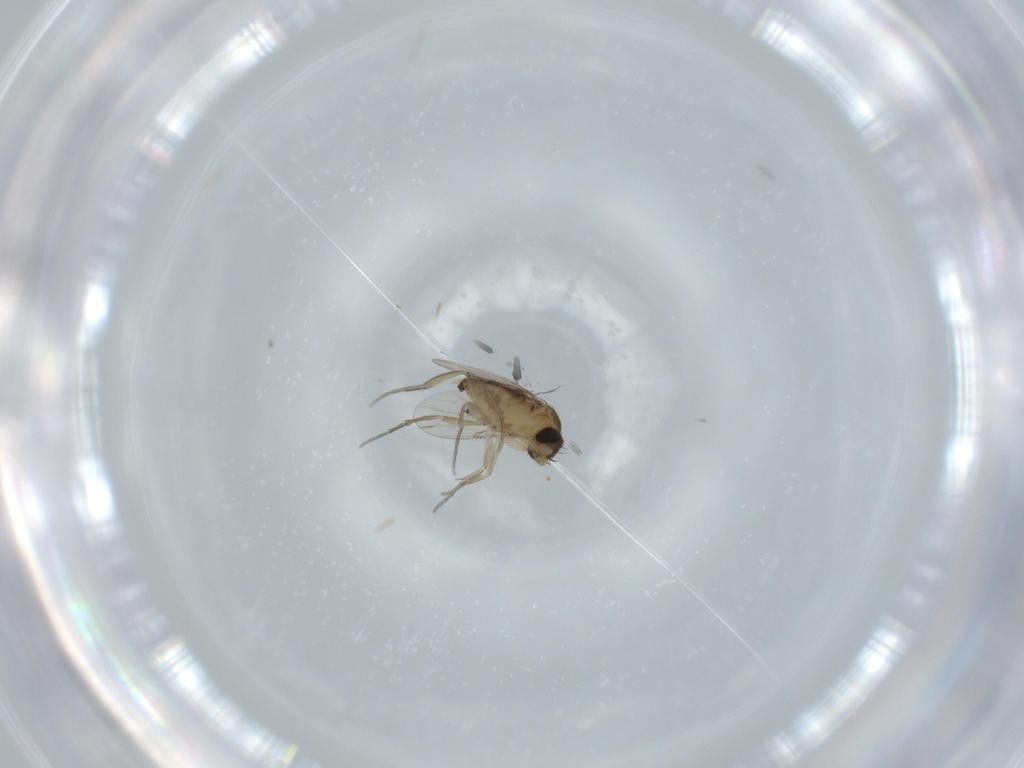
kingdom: Animalia
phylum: Arthropoda
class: Insecta
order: Diptera
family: Phoridae
